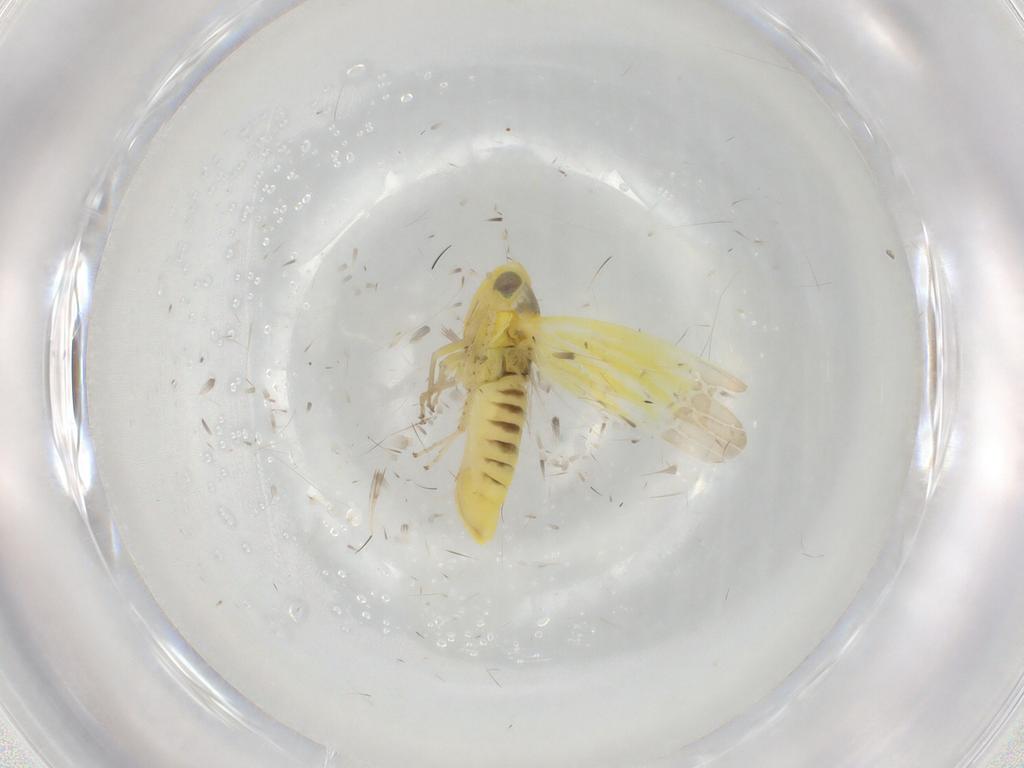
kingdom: Animalia
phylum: Arthropoda
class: Insecta
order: Hemiptera
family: Cicadellidae
